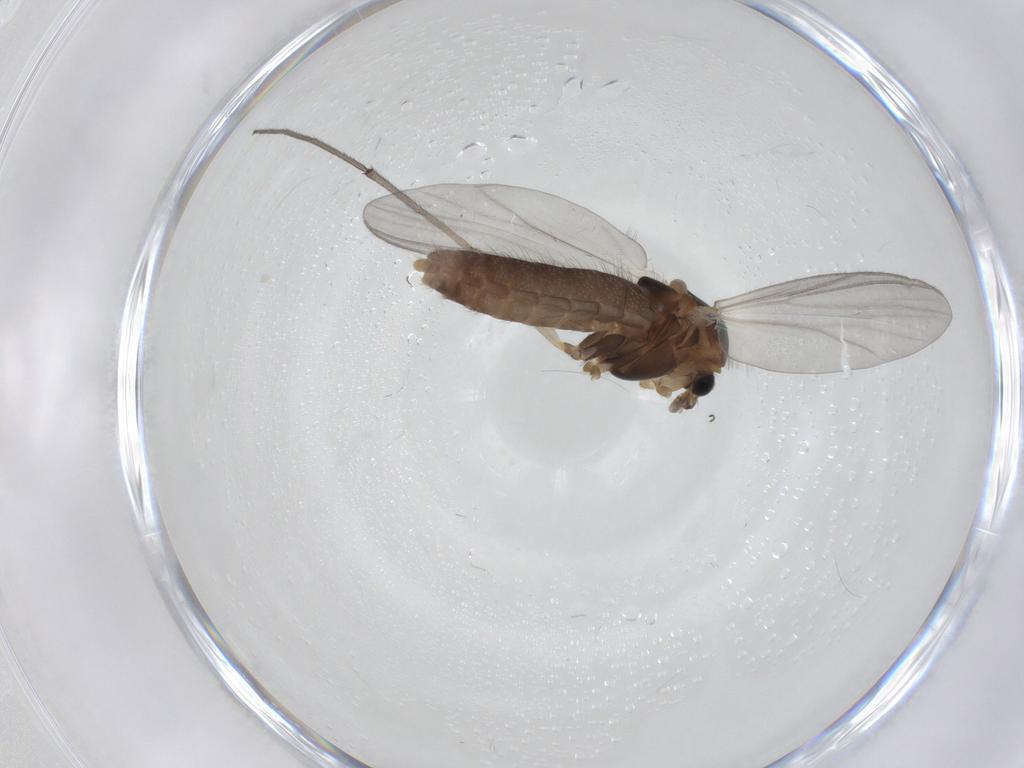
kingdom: Animalia
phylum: Arthropoda
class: Insecta
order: Diptera
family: Chironomidae
